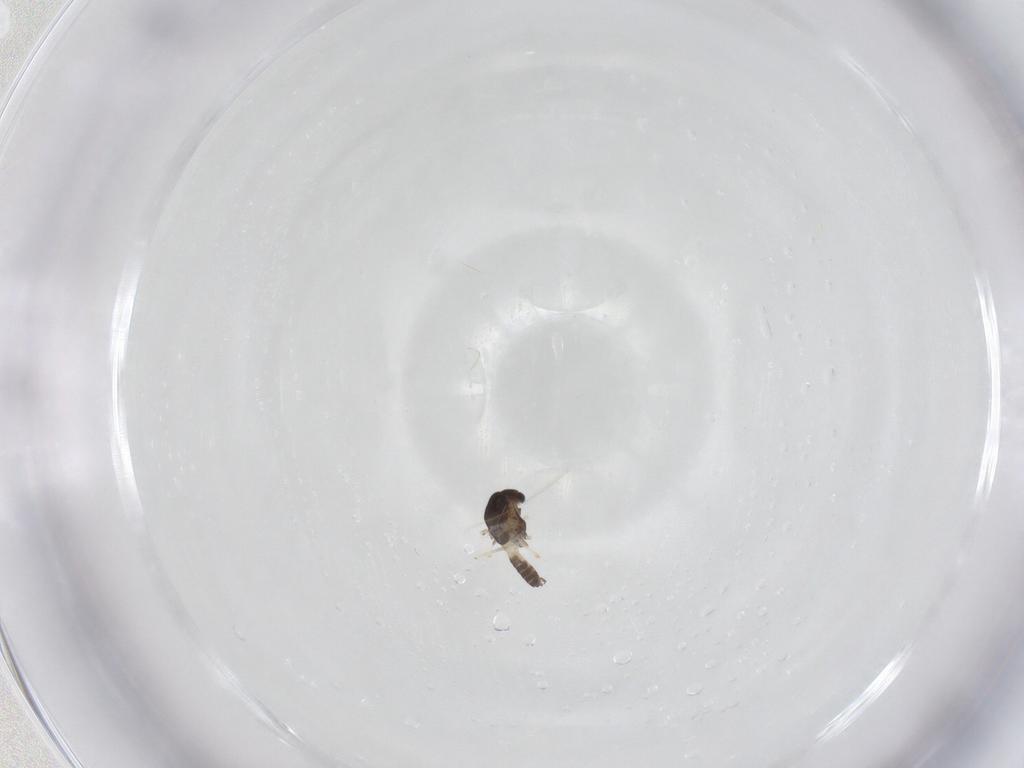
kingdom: Animalia
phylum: Arthropoda
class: Insecta
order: Diptera
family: Chironomidae
